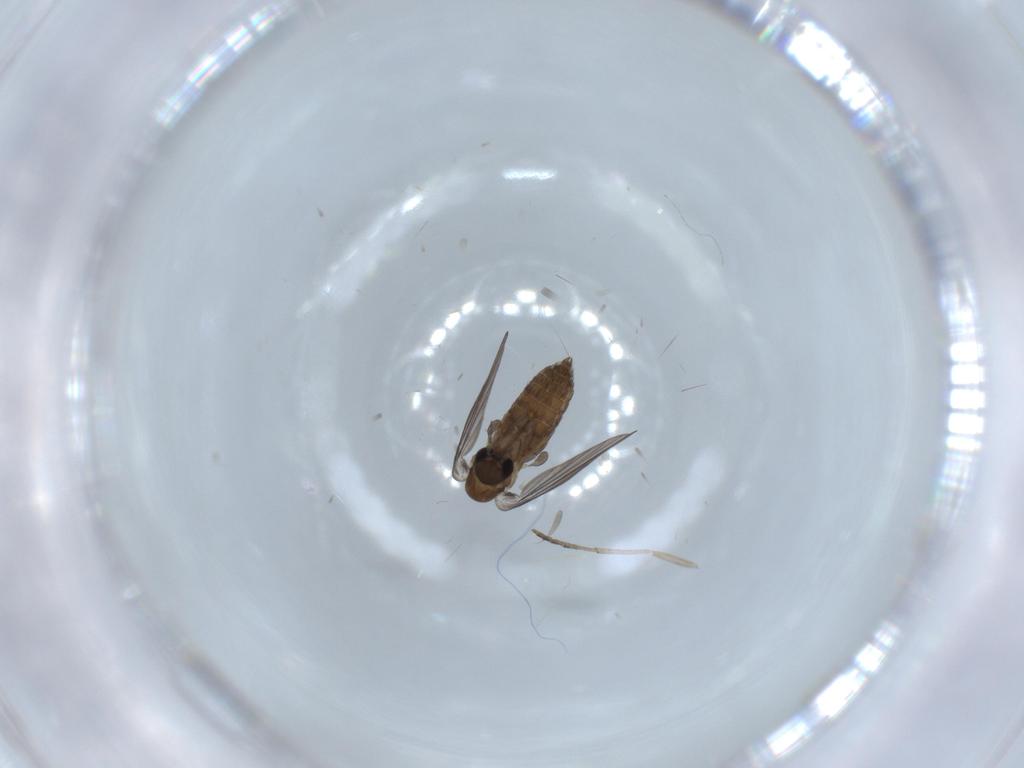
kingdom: Animalia
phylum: Arthropoda
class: Insecta
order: Diptera
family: Psychodidae
